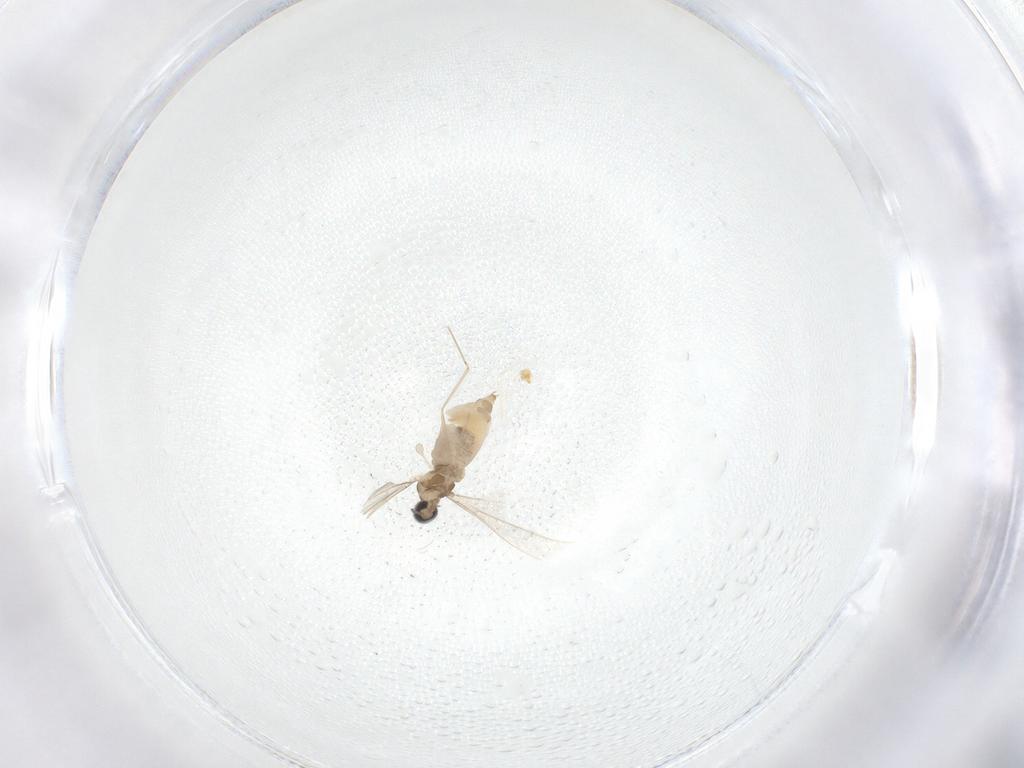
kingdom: Animalia
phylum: Arthropoda
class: Insecta
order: Diptera
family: Cecidomyiidae
